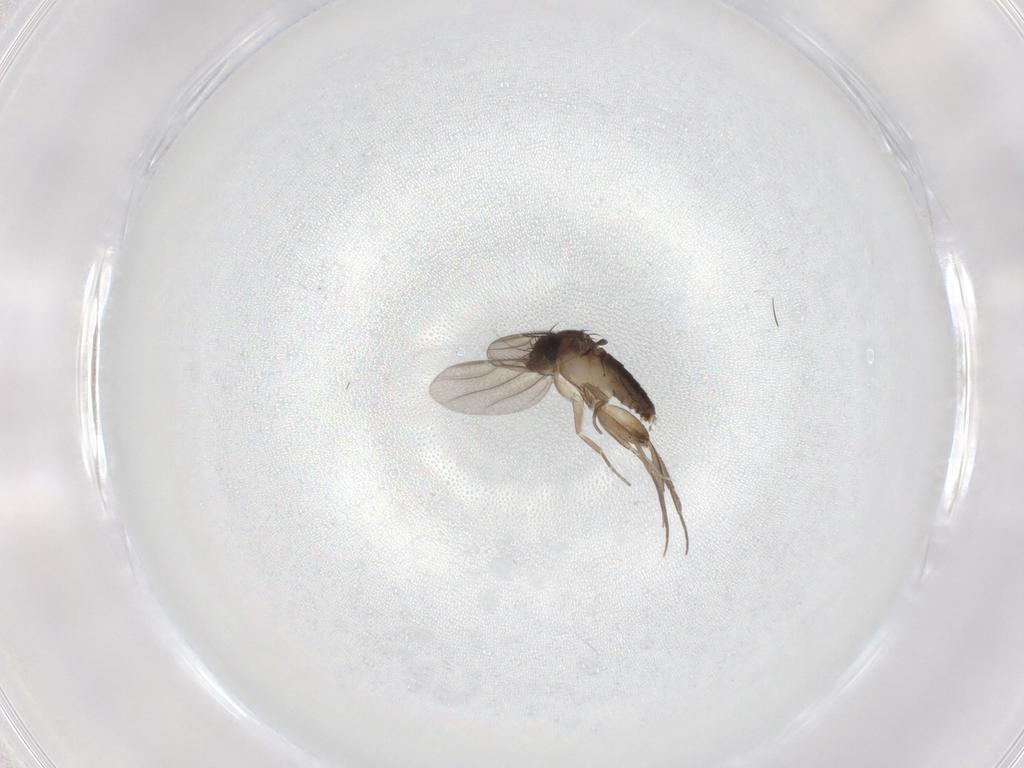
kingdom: Animalia
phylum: Arthropoda
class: Insecta
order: Diptera
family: Phoridae
